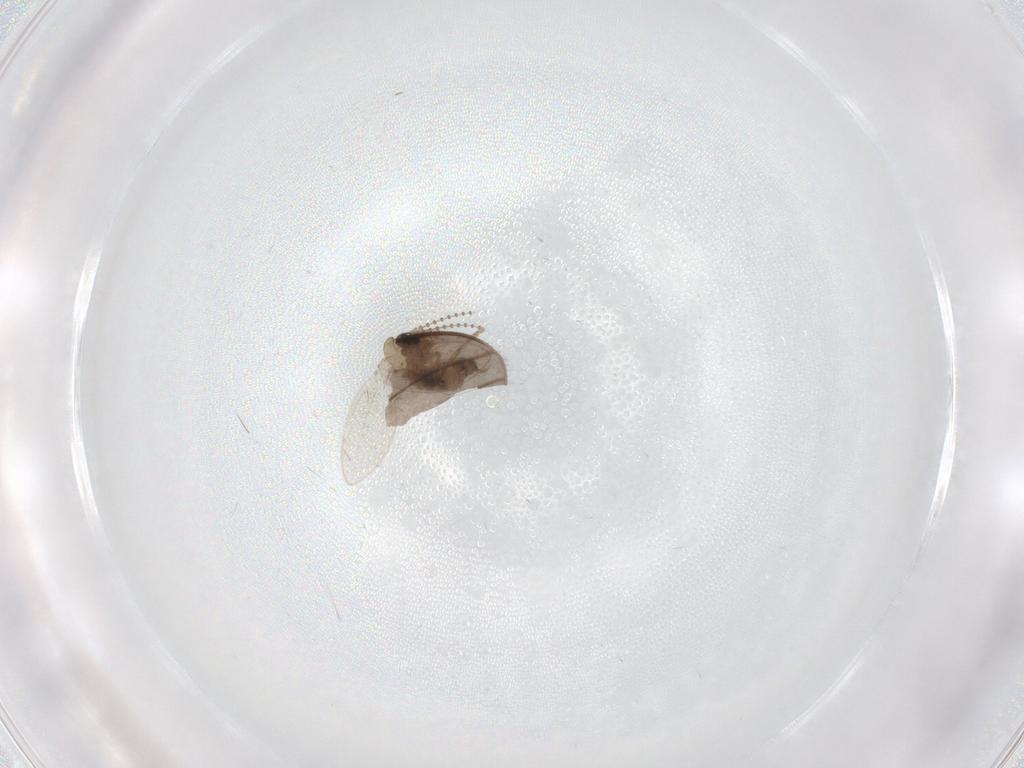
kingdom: Animalia
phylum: Arthropoda
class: Insecta
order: Diptera
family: Psychodidae
